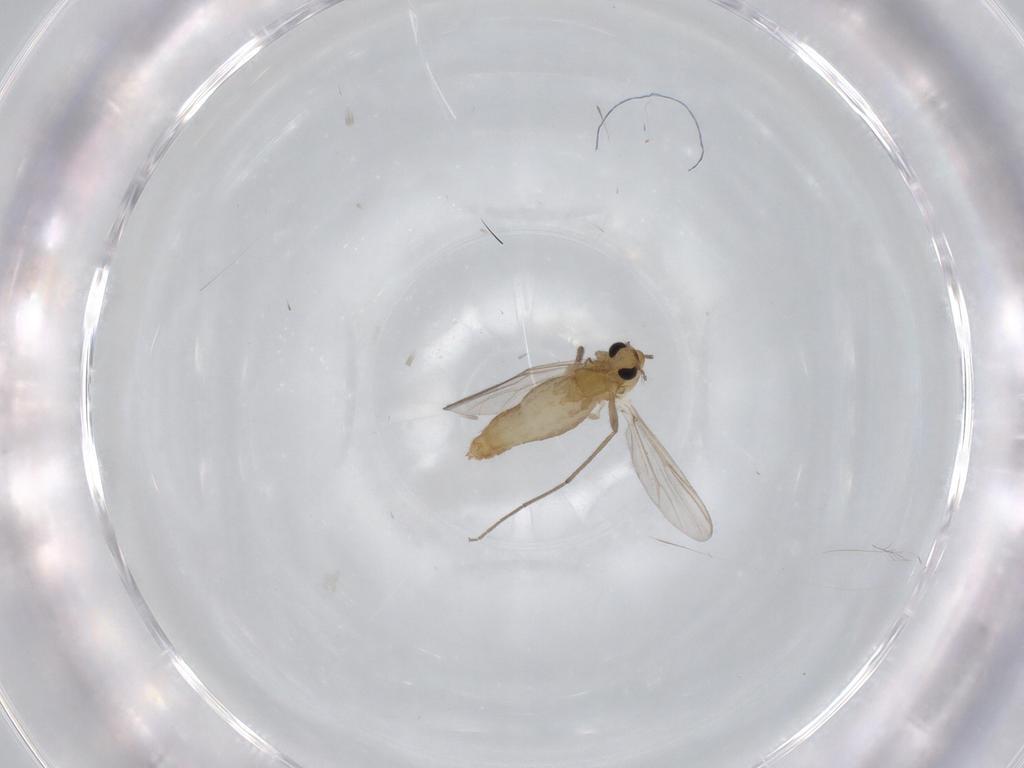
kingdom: Animalia
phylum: Arthropoda
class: Insecta
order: Diptera
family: Chironomidae
